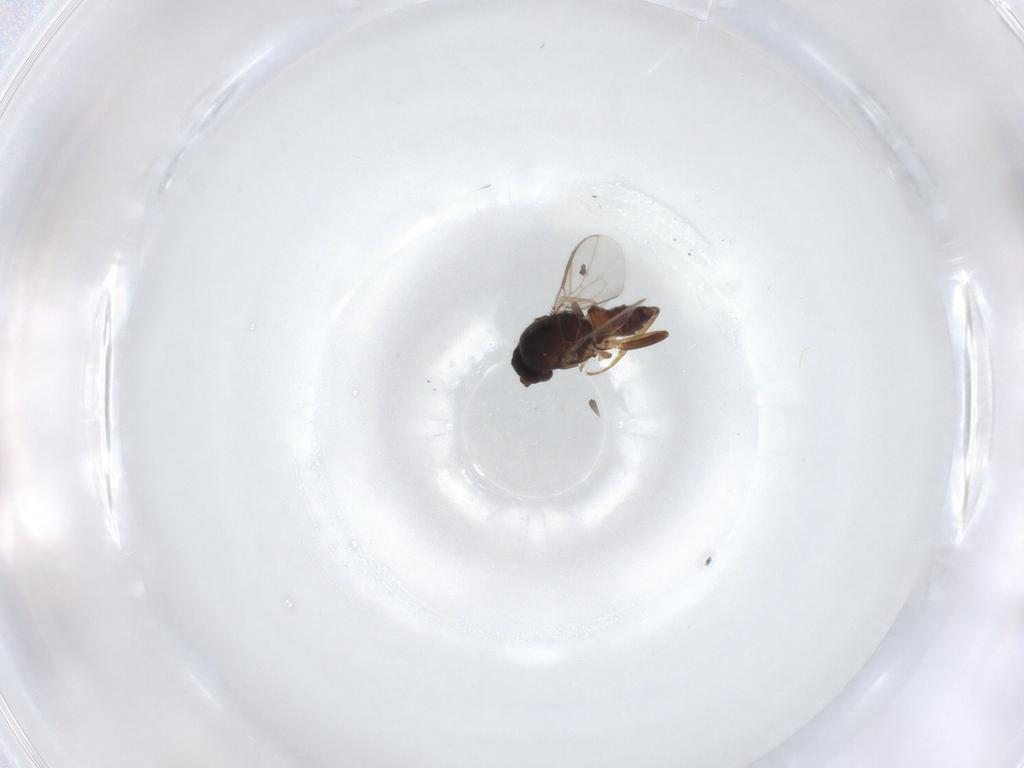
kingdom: Animalia
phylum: Arthropoda
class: Insecta
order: Diptera
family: Sphaeroceridae
